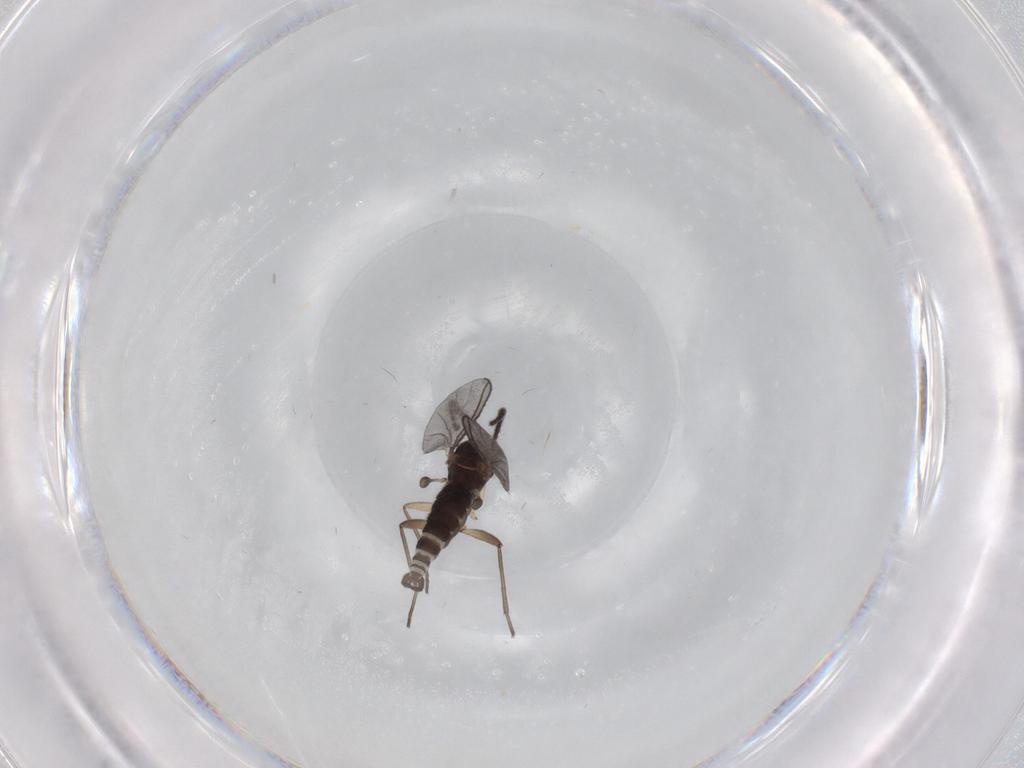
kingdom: Animalia
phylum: Arthropoda
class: Insecta
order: Diptera
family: Sciaridae
